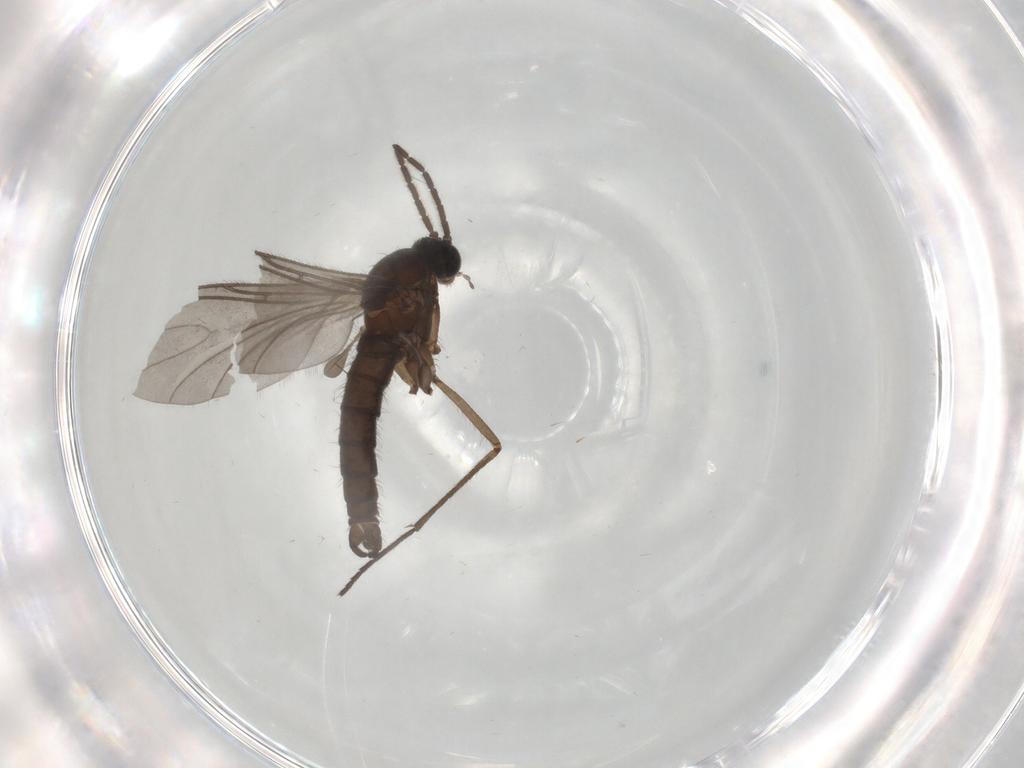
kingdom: Animalia
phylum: Arthropoda
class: Insecta
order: Diptera
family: Sciaridae
